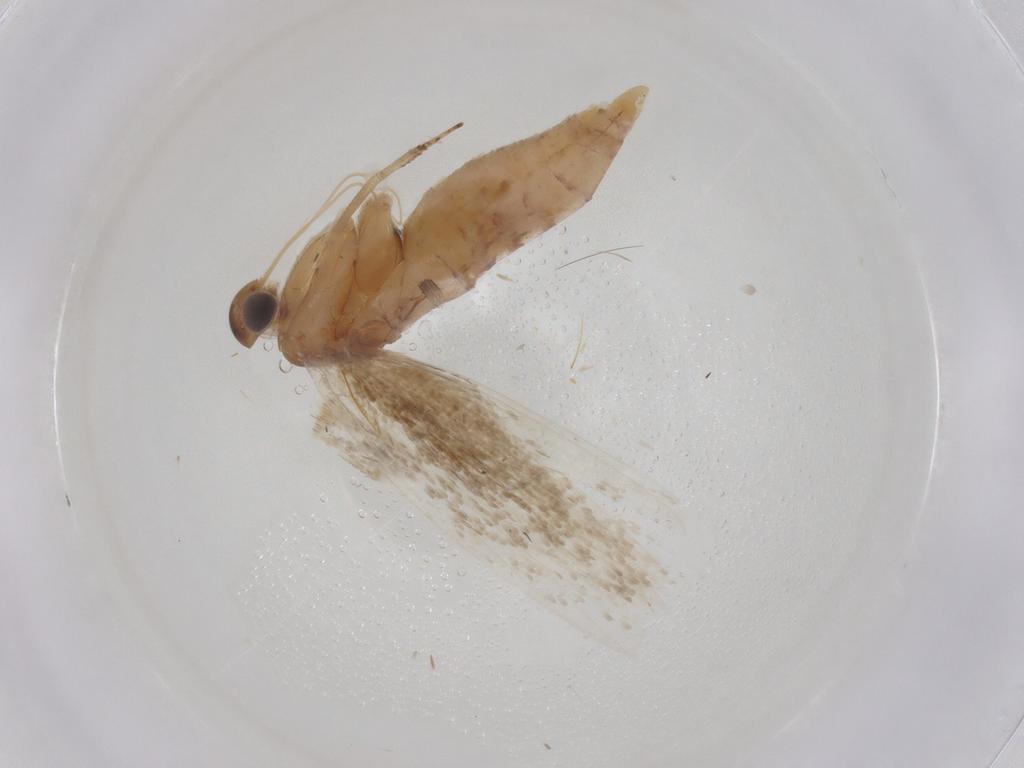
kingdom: Animalia
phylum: Arthropoda
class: Insecta
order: Lepidoptera
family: Gelechiidae
